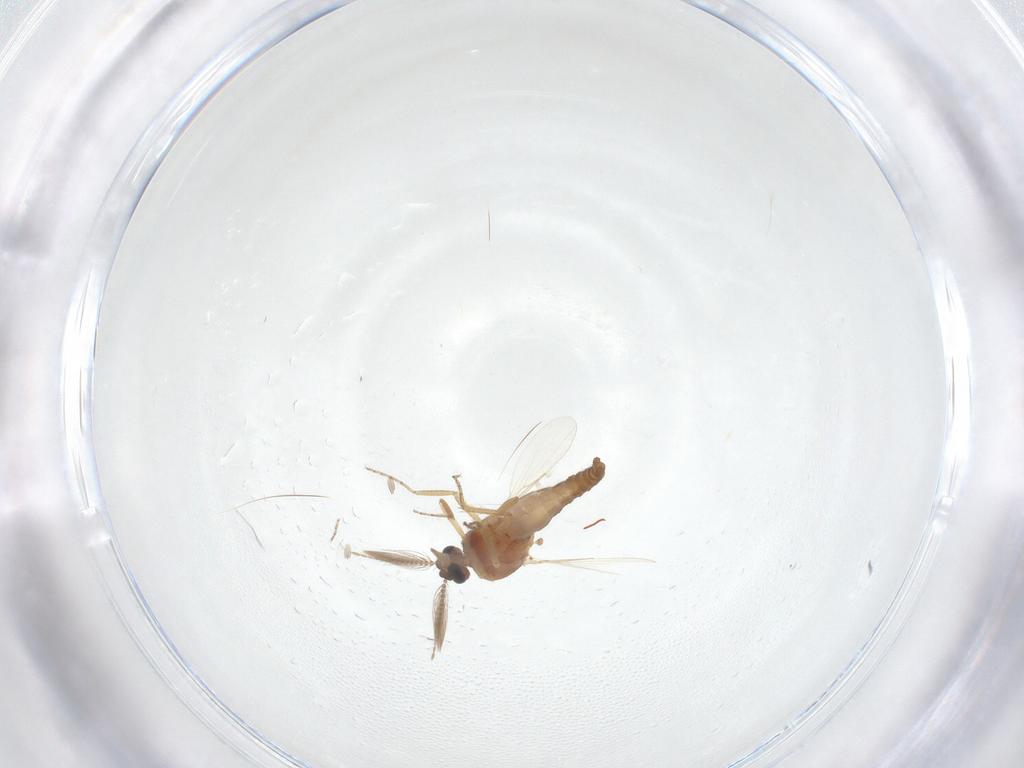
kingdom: Animalia
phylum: Arthropoda
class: Insecta
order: Diptera
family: Ceratopogonidae
